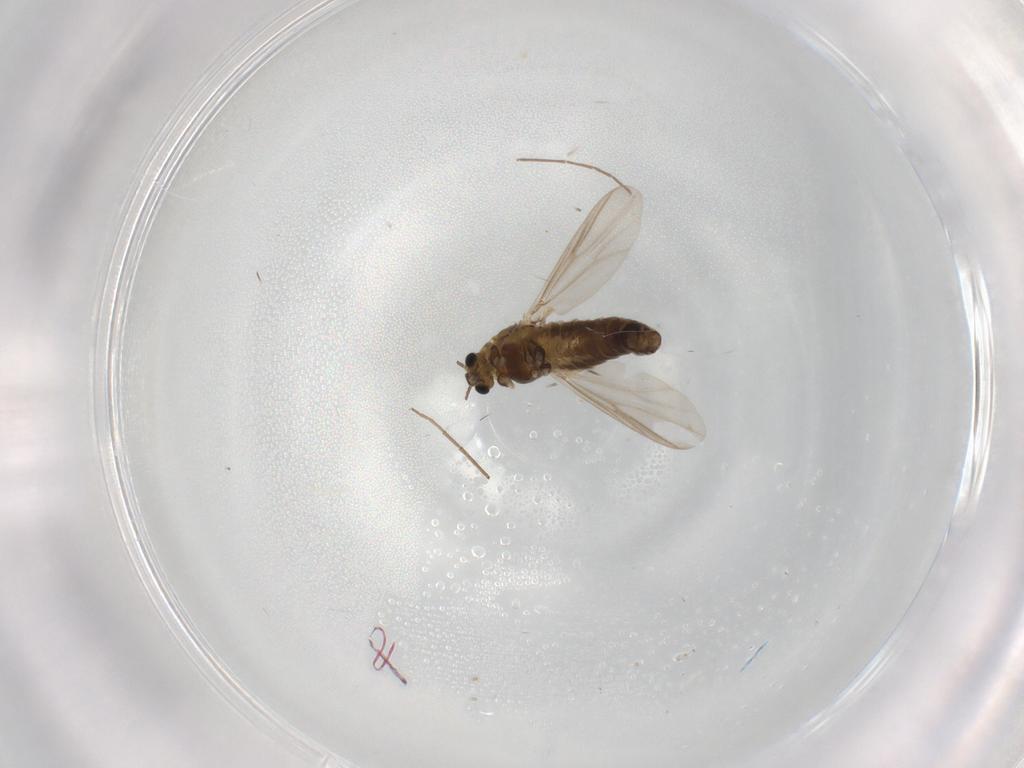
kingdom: Animalia
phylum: Arthropoda
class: Insecta
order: Diptera
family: Chironomidae
